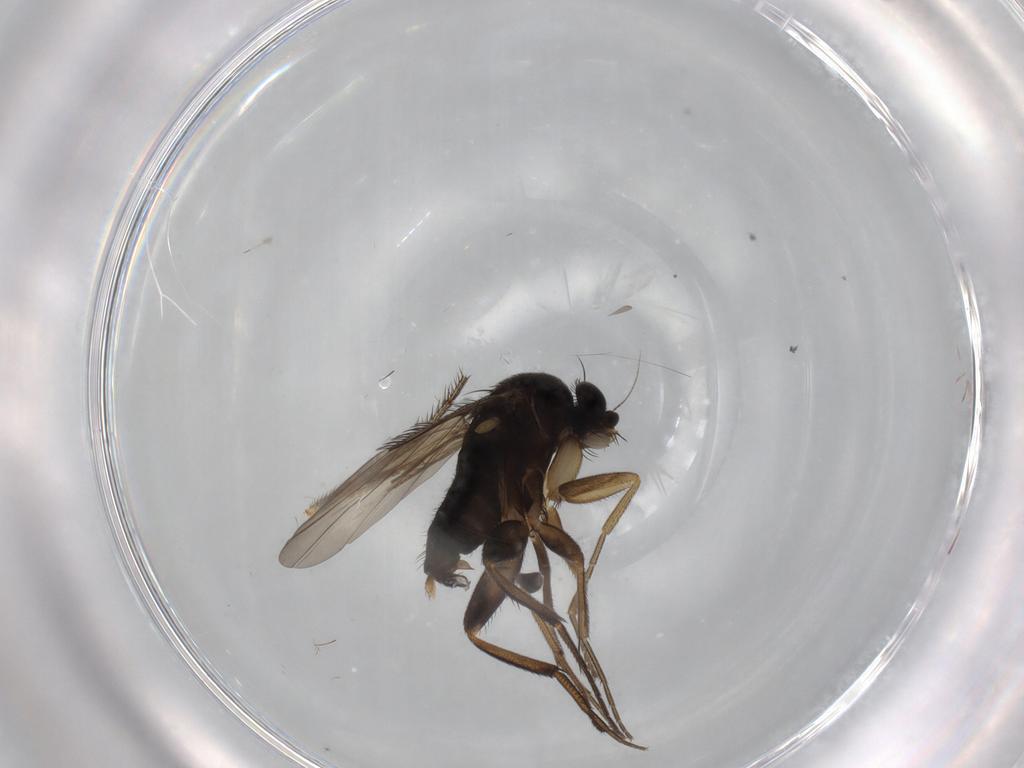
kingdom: Animalia
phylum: Arthropoda
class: Insecta
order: Diptera
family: Phoridae
